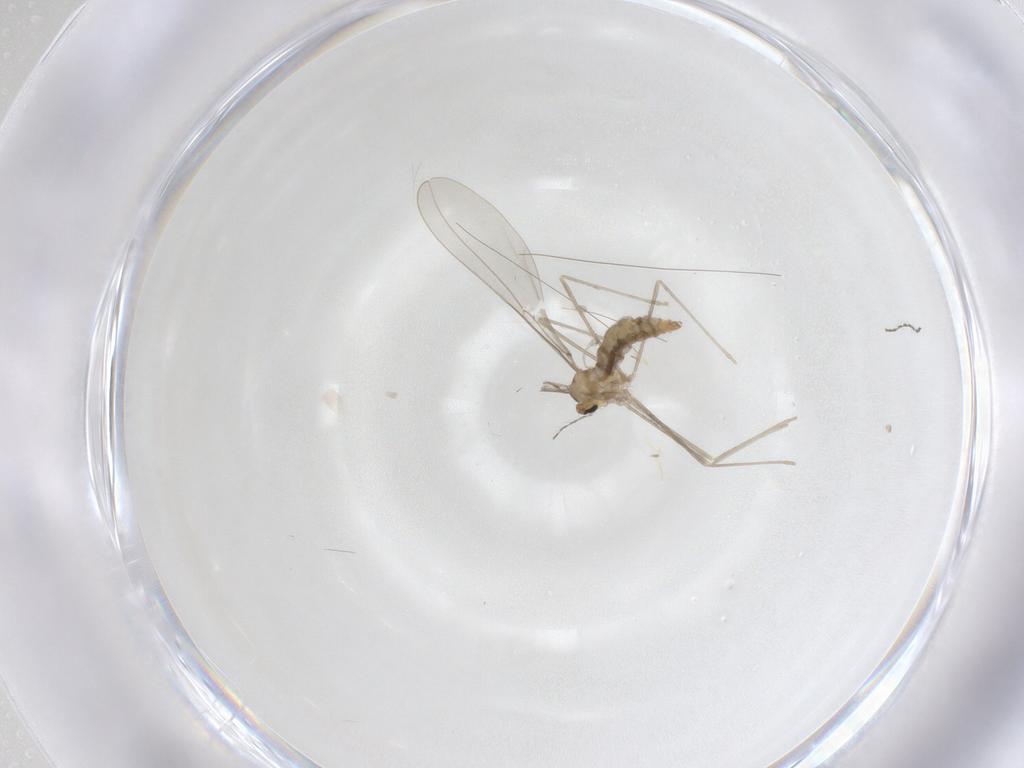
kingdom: Animalia
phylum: Arthropoda
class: Insecta
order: Diptera
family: Cecidomyiidae
